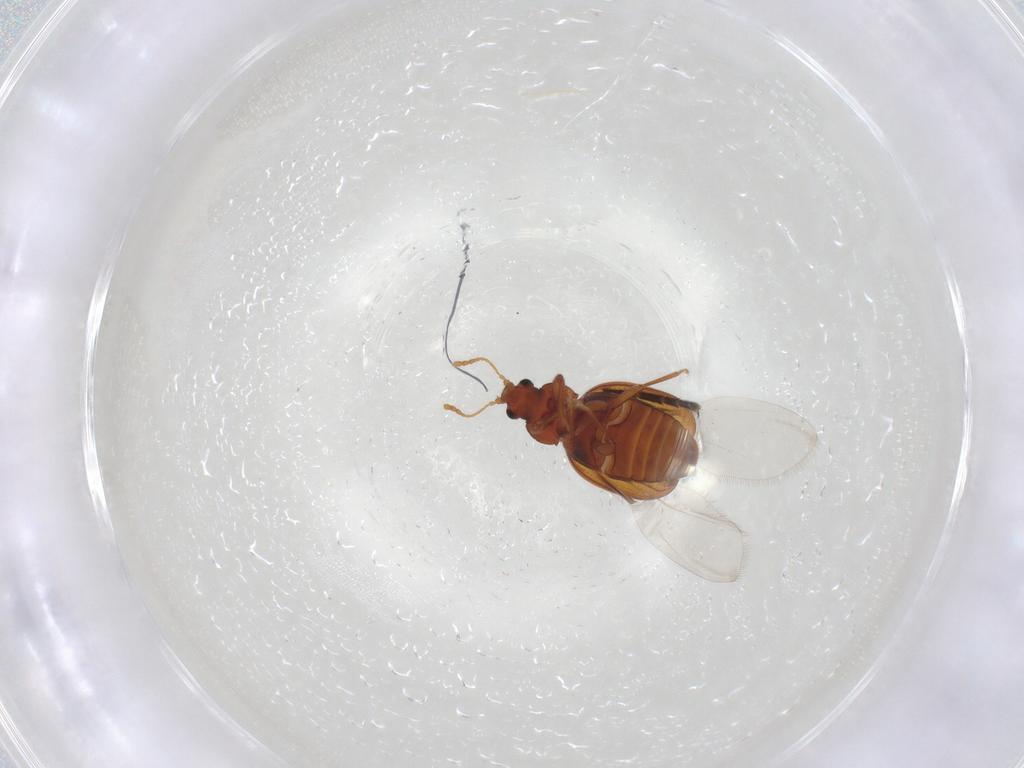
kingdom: Animalia
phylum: Arthropoda
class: Insecta
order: Coleoptera
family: Latridiidae
